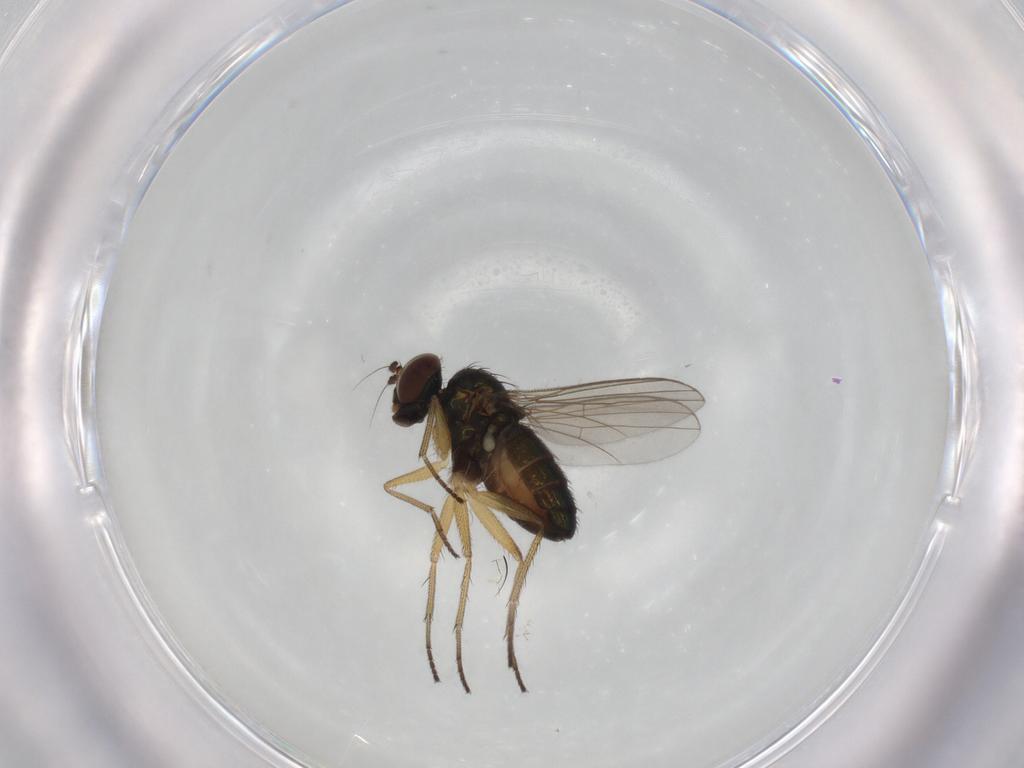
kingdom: Animalia
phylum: Arthropoda
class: Insecta
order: Diptera
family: Dolichopodidae
